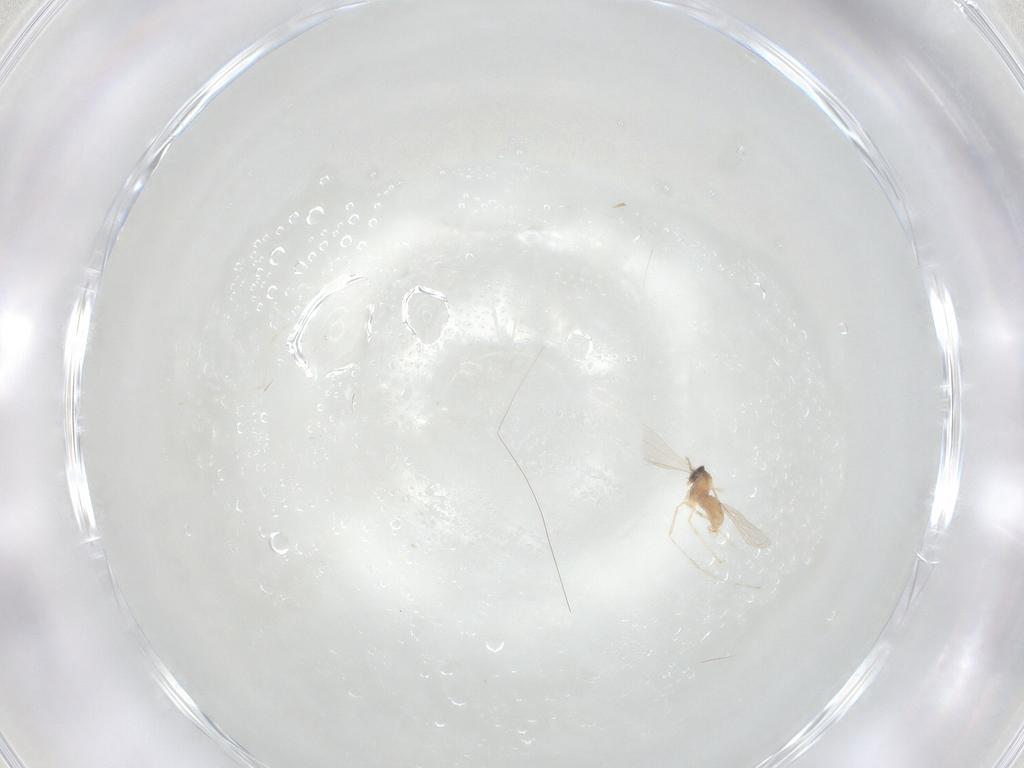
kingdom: Animalia
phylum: Arthropoda
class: Insecta
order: Diptera
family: Cecidomyiidae
